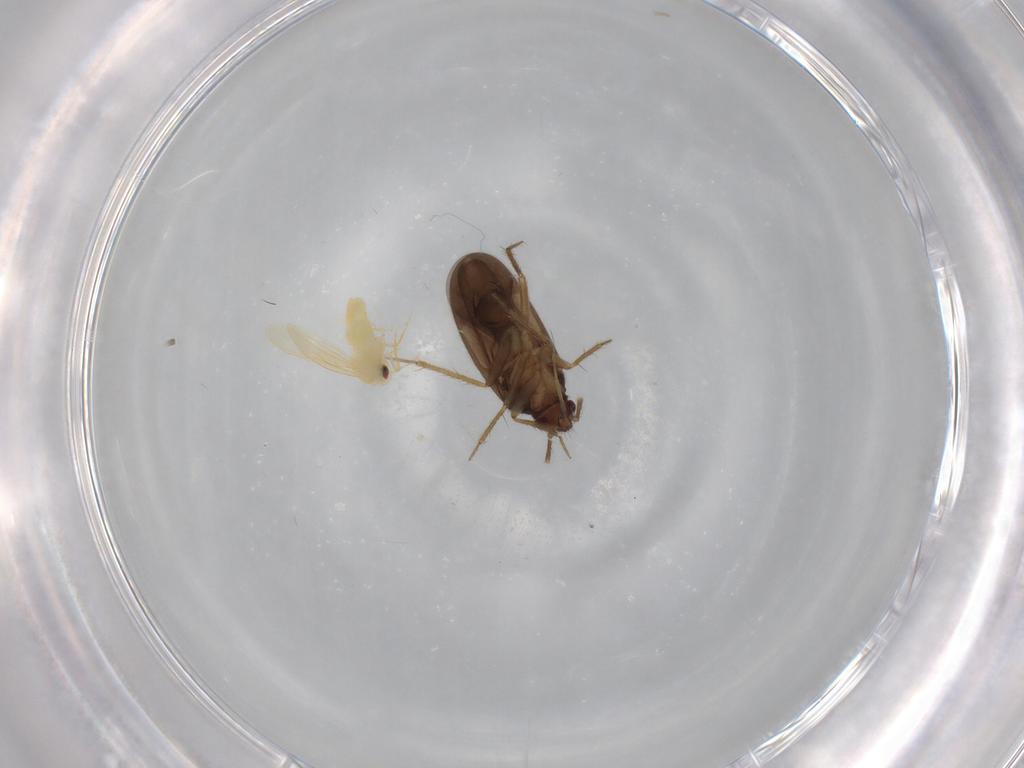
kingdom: Animalia
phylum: Arthropoda
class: Insecta
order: Hemiptera
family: Ceratocombidae
